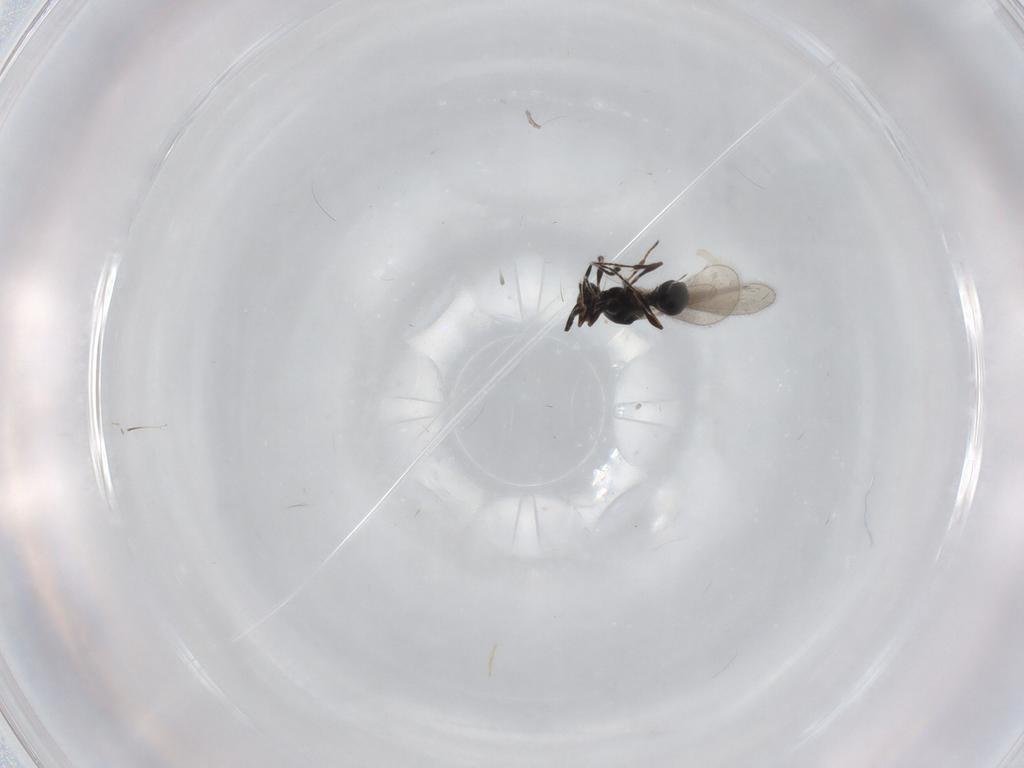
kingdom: Animalia
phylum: Arthropoda
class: Insecta
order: Hymenoptera
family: Platygastridae
